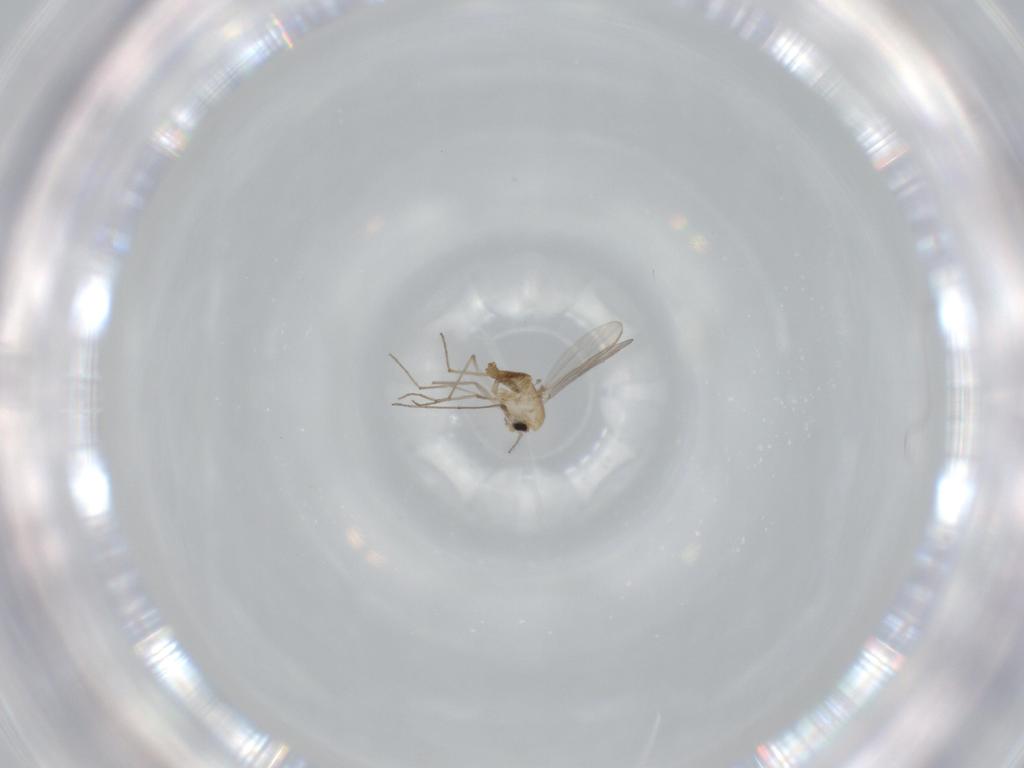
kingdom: Animalia
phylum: Arthropoda
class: Insecta
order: Diptera
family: Chironomidae
